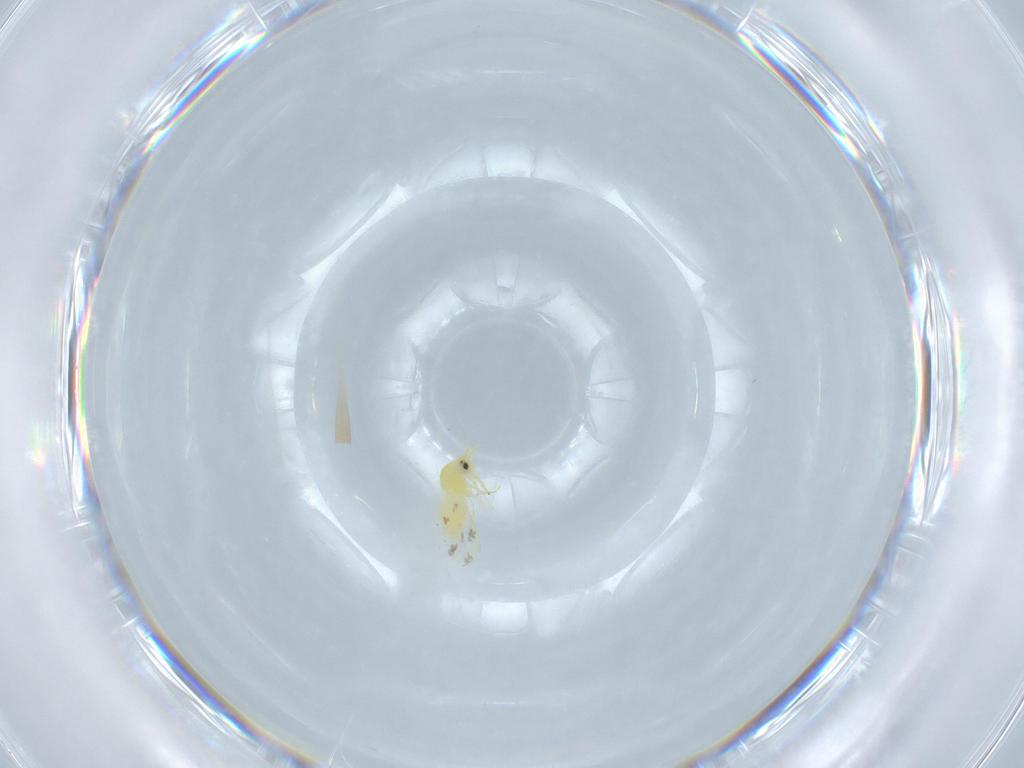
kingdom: Animalia
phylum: Arthropoda
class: Insecta
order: Hemiptera
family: Aleyrodidae
